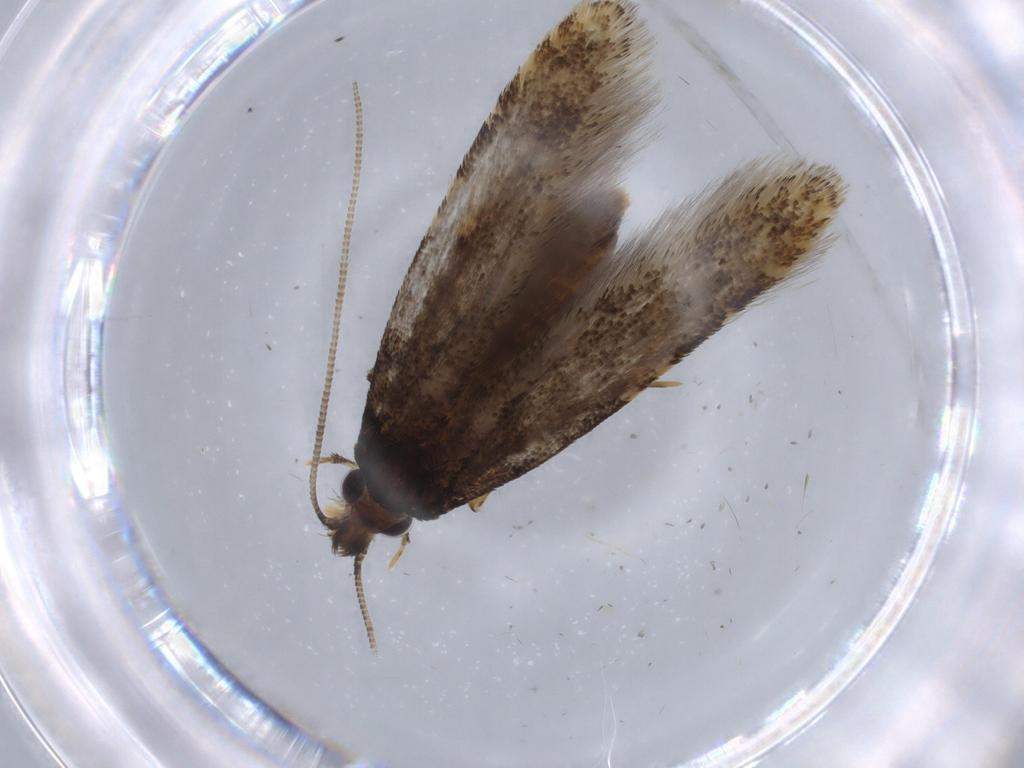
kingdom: Animalia
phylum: Arthropoda
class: Insecta
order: Lepidoptera
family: Tineidae
